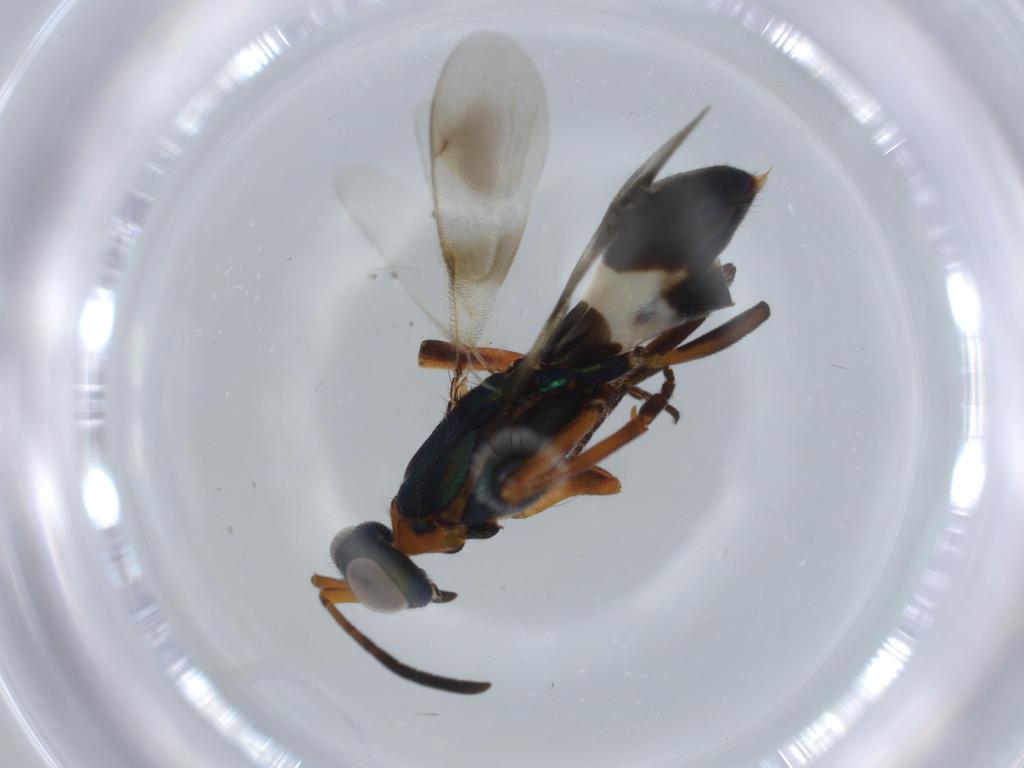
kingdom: Animalia
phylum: Arthropoda
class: Insecta
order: Hymenoptera
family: Eupelmidae
